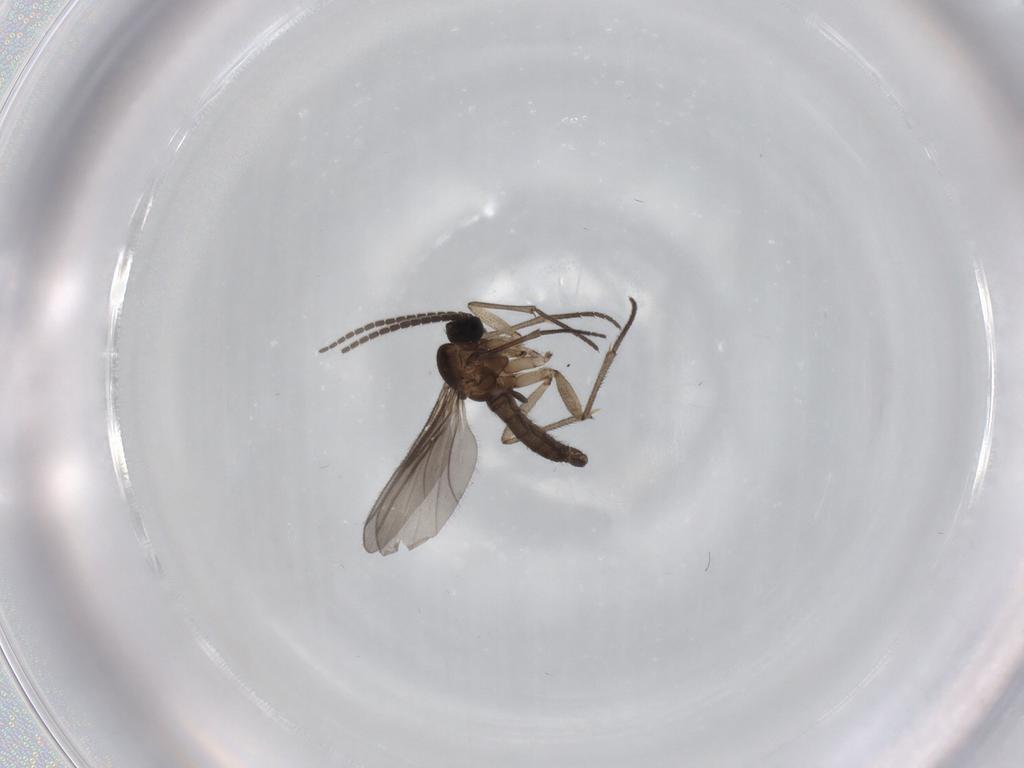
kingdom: Animalia
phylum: Arthropoda
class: Insecta
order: Diptera
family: Sciaridae
